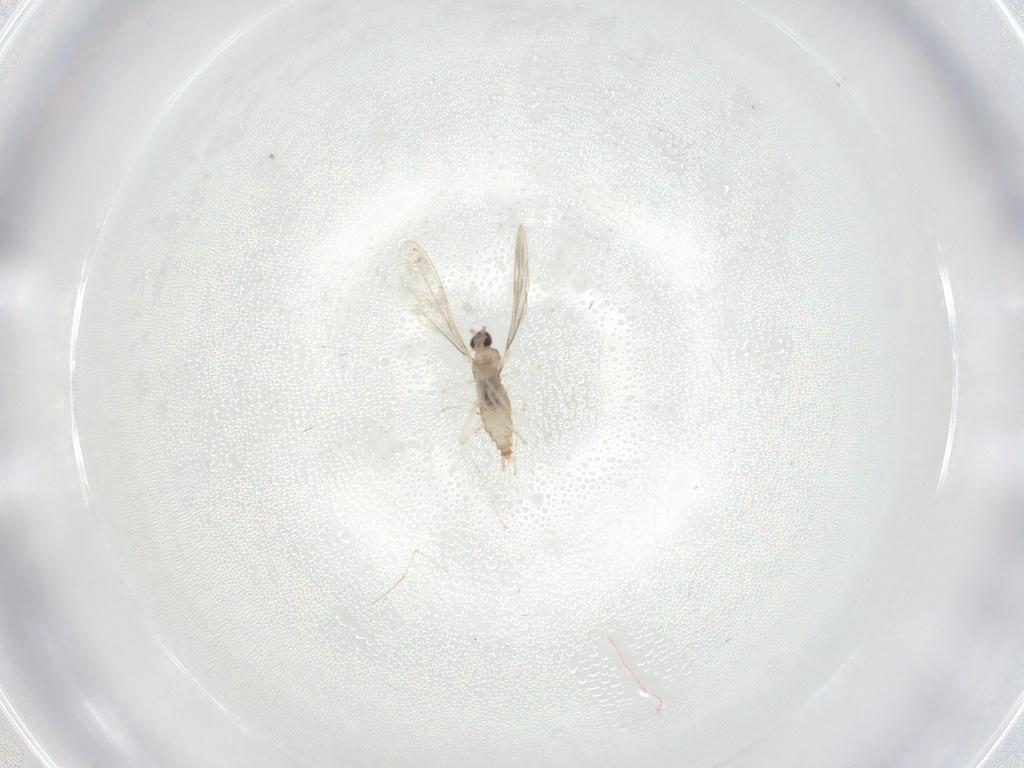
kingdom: Animalia
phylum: Arthropoda
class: Insecta
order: Diptera
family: Cecidomyiidae
